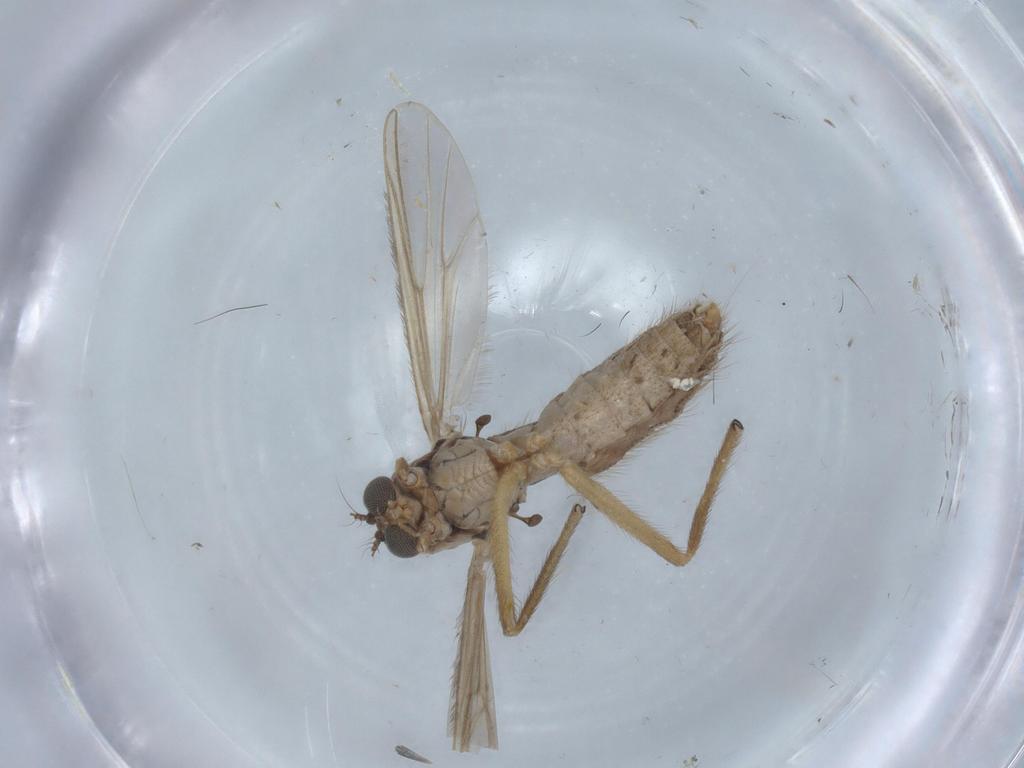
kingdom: Animalia
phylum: Arthropoda
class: Insecta
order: Diptera
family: Chironomidae
